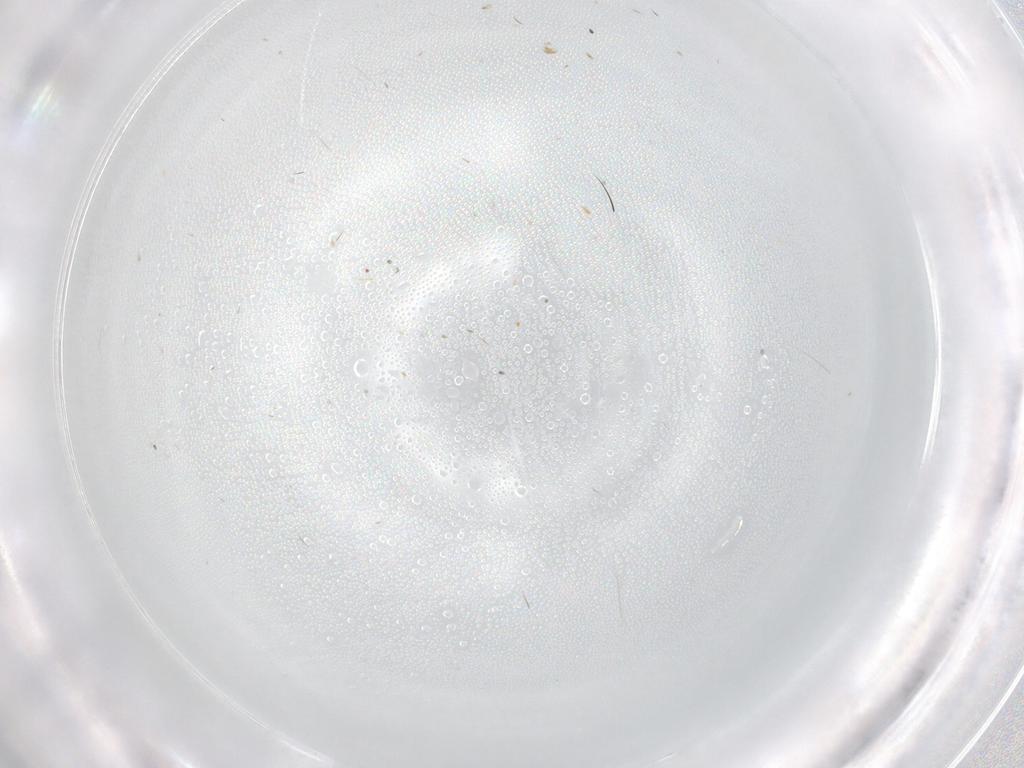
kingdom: Animalia
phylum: Arthropoda
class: Insecta
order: Hymenoptera
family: Formicidae
